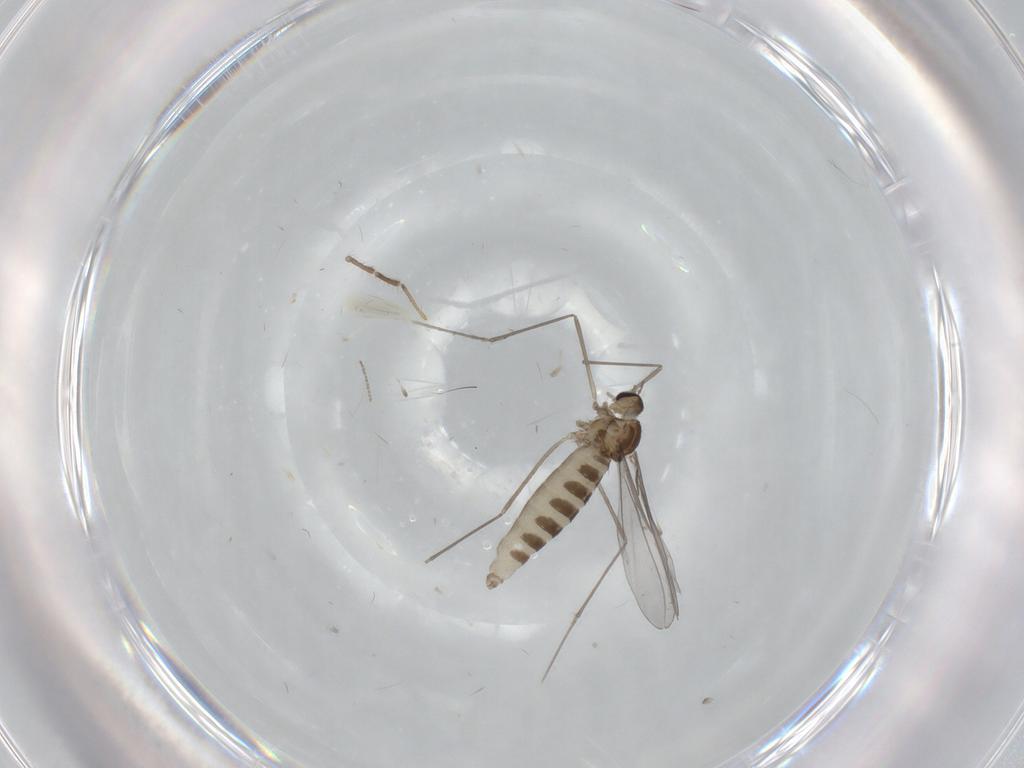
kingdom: Animalia
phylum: Arthropoda
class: Insecta
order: Diptera
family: Cecidomyiidae
